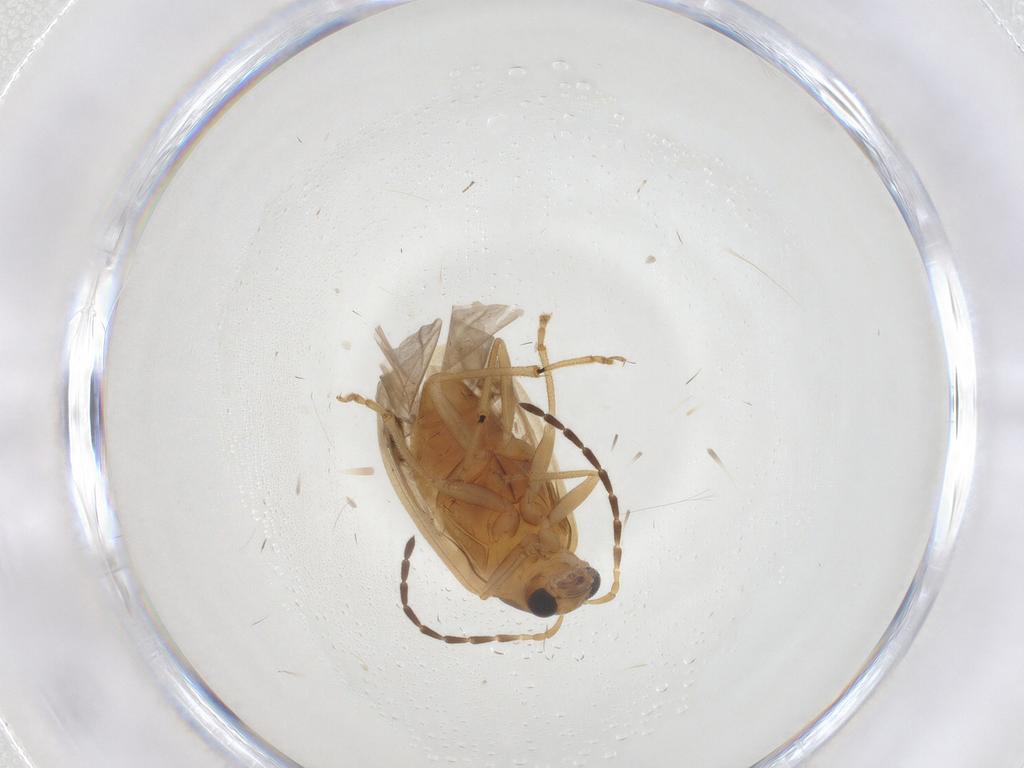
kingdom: Animalia
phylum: Arthropoda
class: Insecta
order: Coleoptera
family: Chrysomelidae
